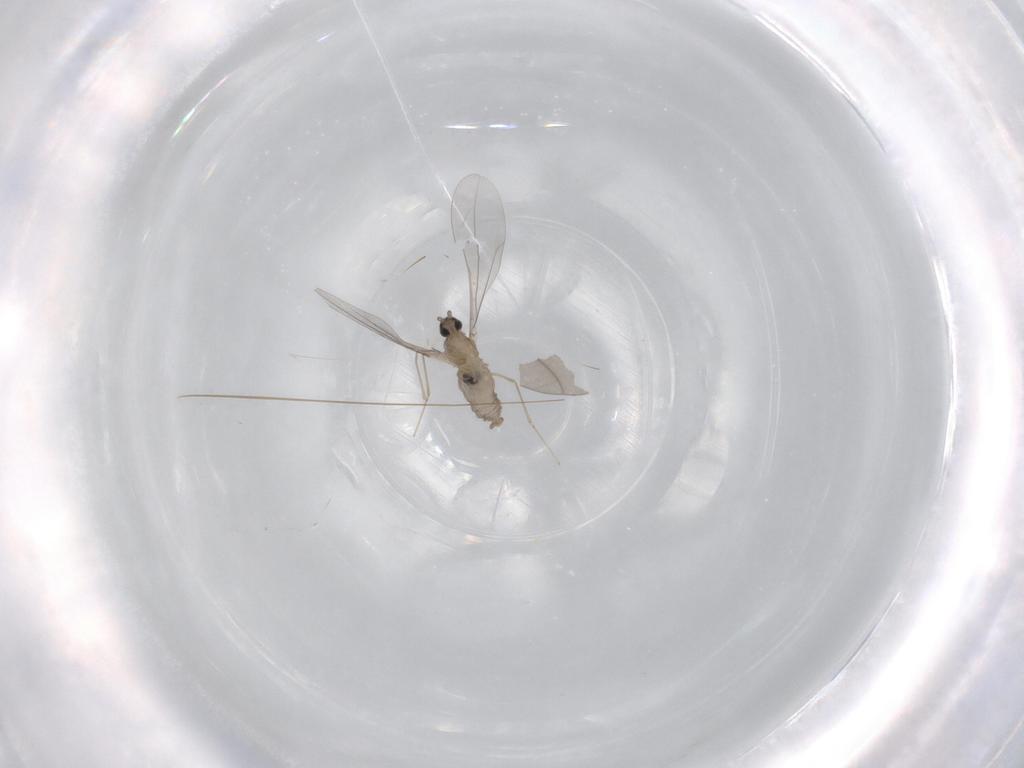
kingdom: Animalia
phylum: Arthropoda
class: Insecta
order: Diptera
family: Cecidomyiidae
